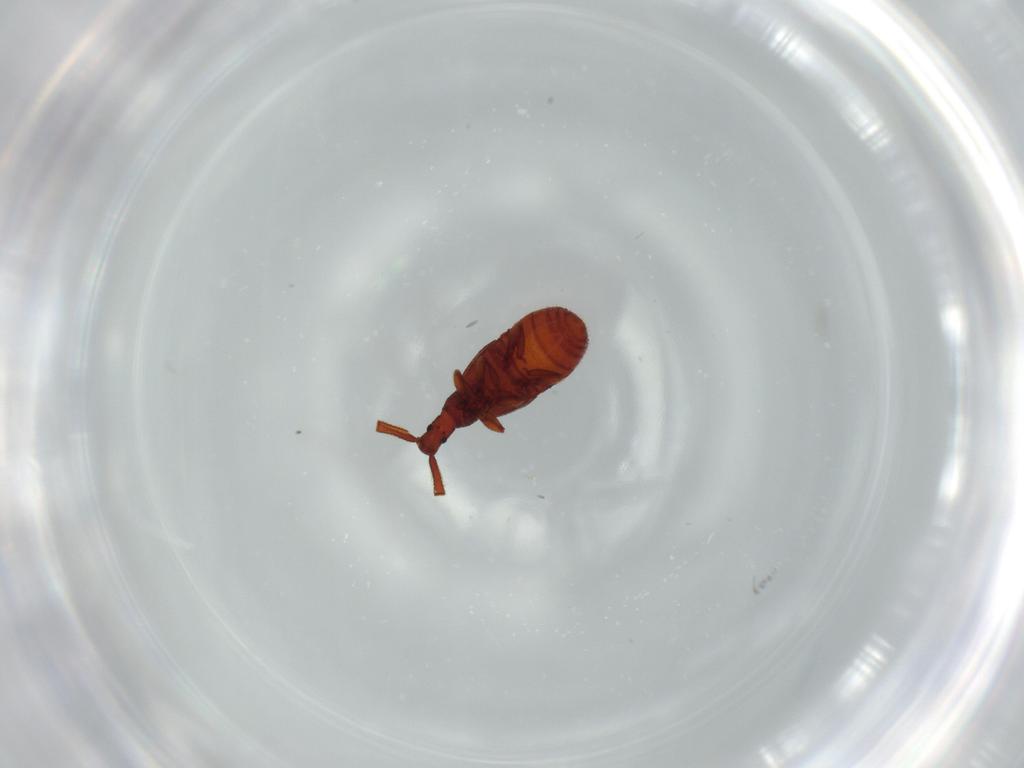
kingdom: Animalia
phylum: Arthropoda
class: Insecta
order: Coleoptera
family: Staphylinidae
